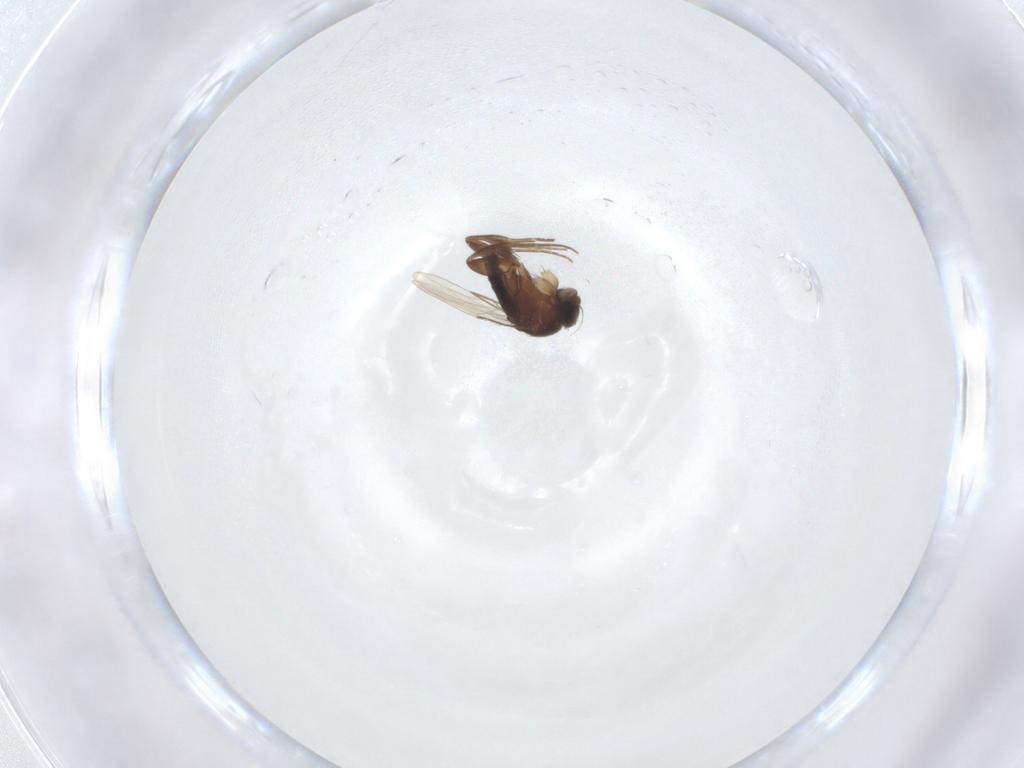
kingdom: Animalia
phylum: Arthropoda
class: Insecta
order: Diptera
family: Phoridae
